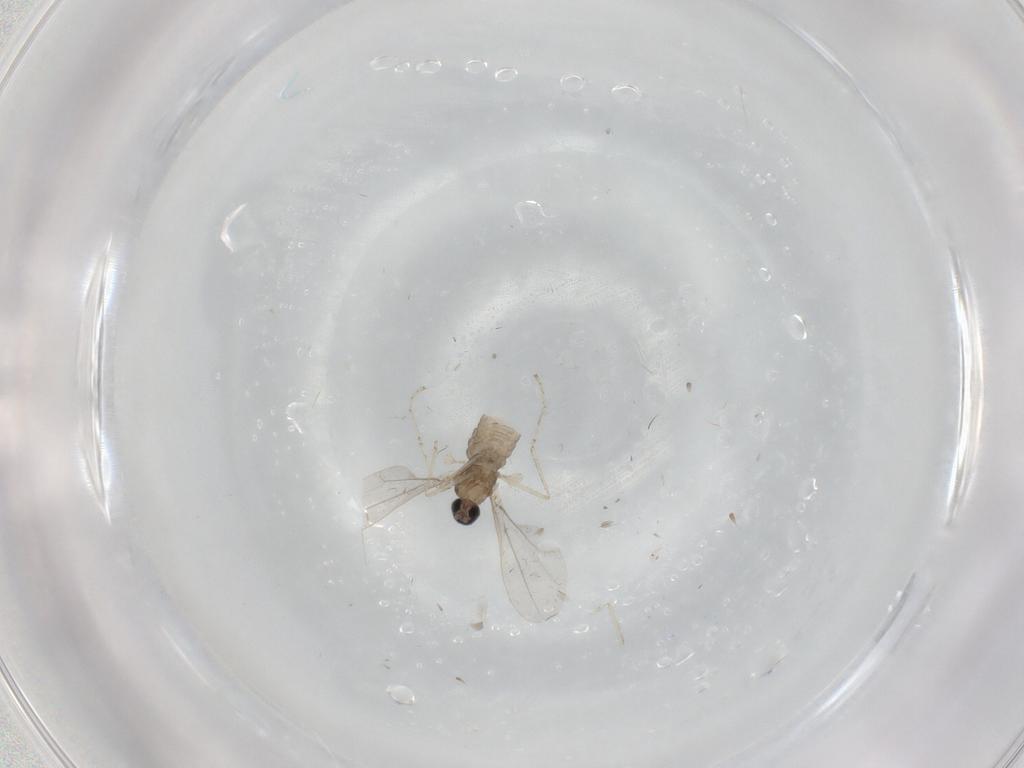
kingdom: Animalia
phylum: Arthropoda
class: Insecta
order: Diptera
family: Cecidomyiidae
